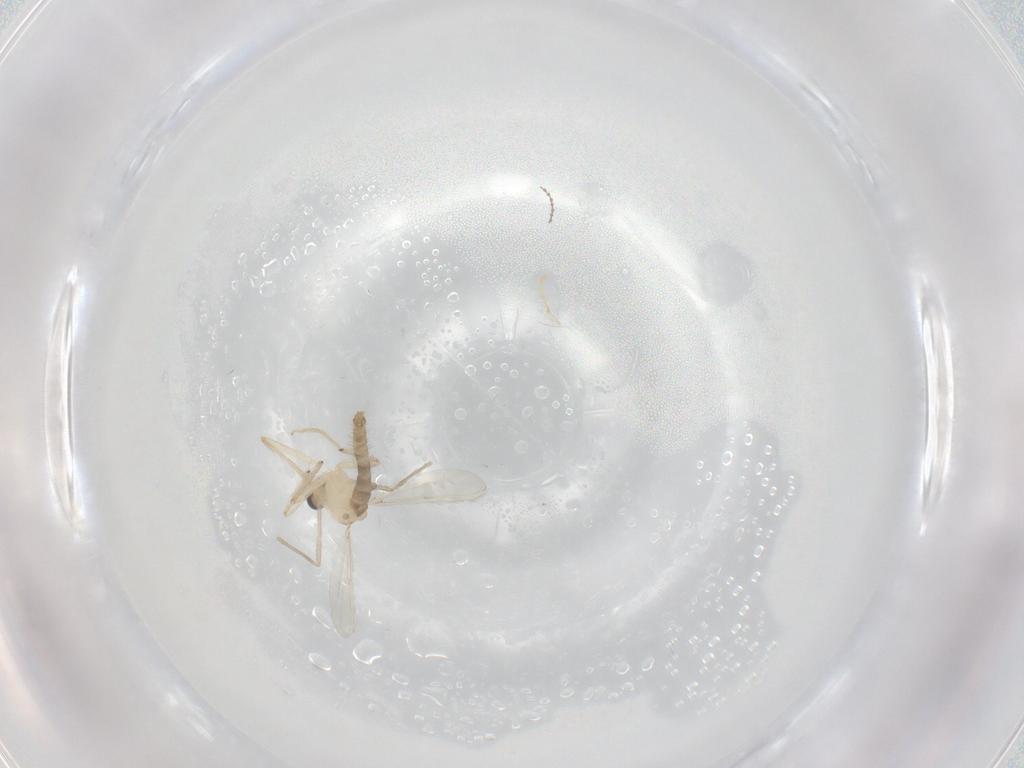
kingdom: Animalia
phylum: Arthropoda
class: Insecta
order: Diptera
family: Chironomidae
